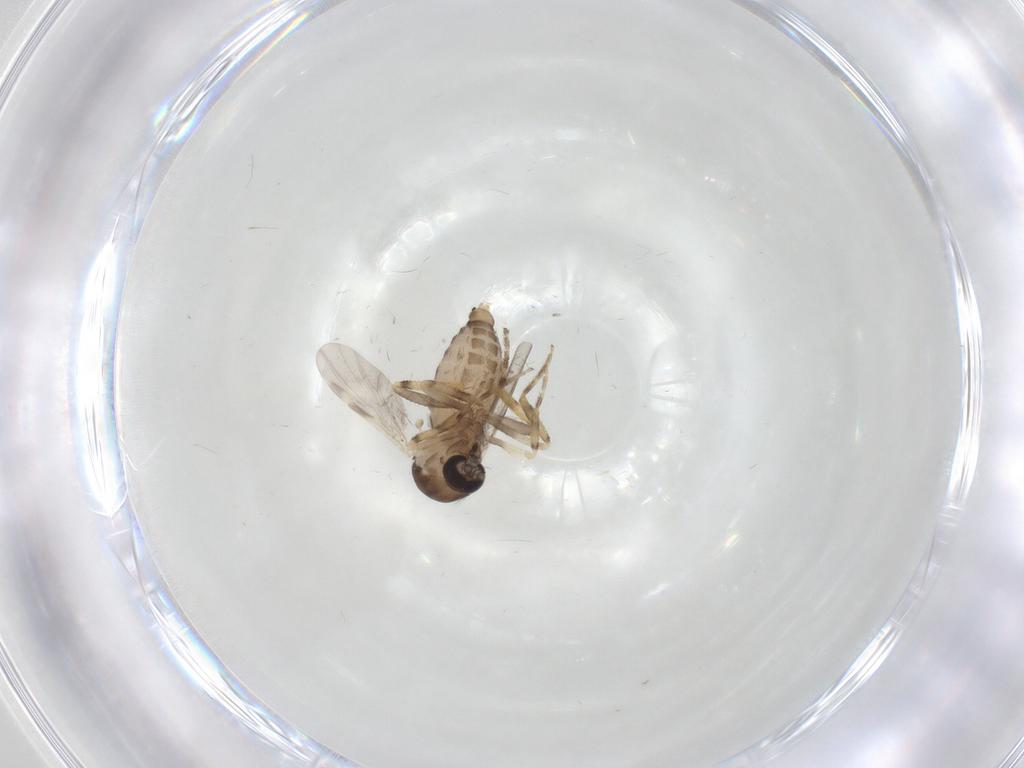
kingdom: Animalia
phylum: Arthropoda
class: Insecta
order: Diptera
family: Ceratopogonidae
